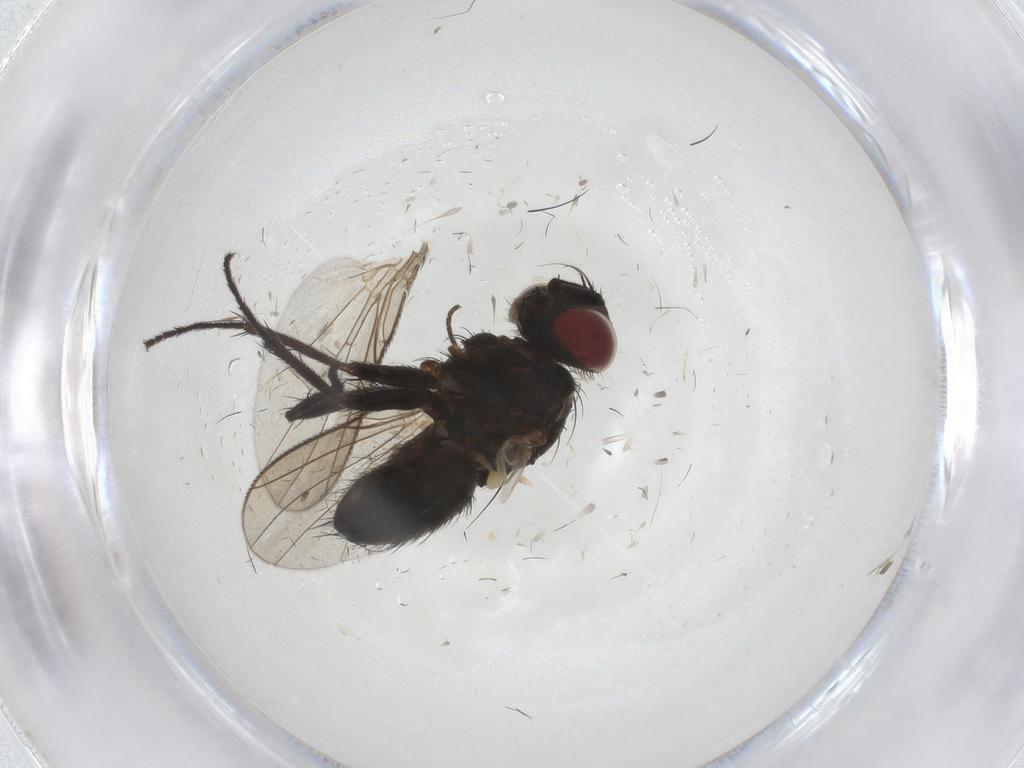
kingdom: Animalia
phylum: Arthropoda
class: Insecta
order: Diptera
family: Muscidae
